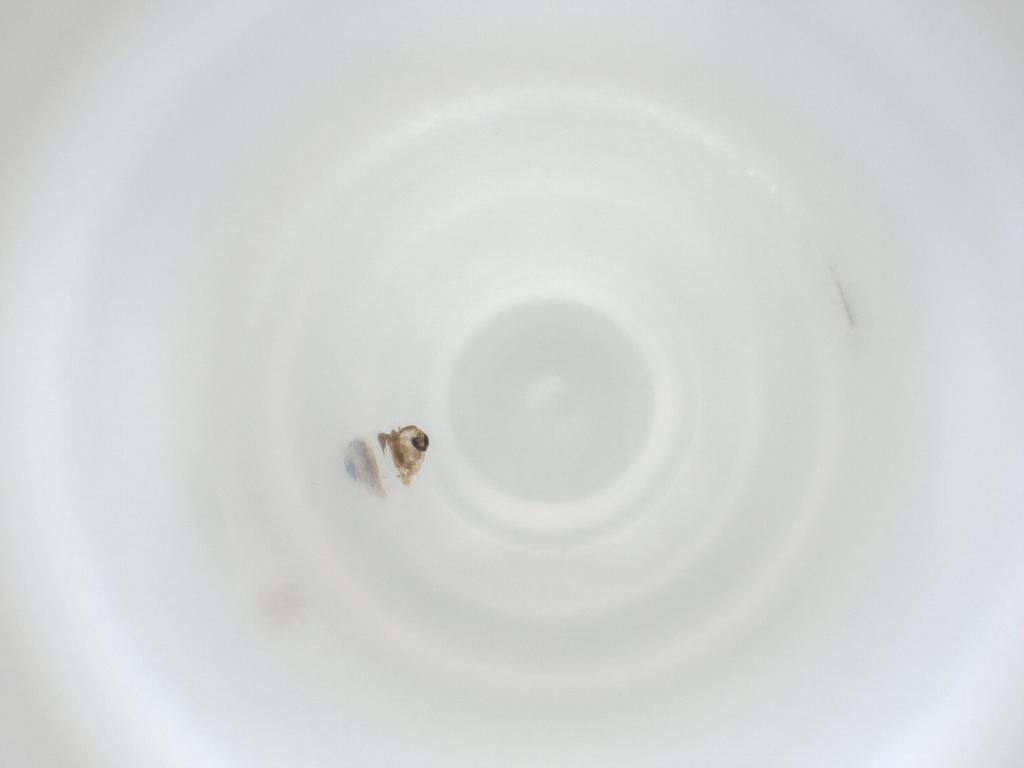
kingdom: Animalia
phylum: Arthropoda
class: Insecta
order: Diptera
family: Cecidomyiidae
